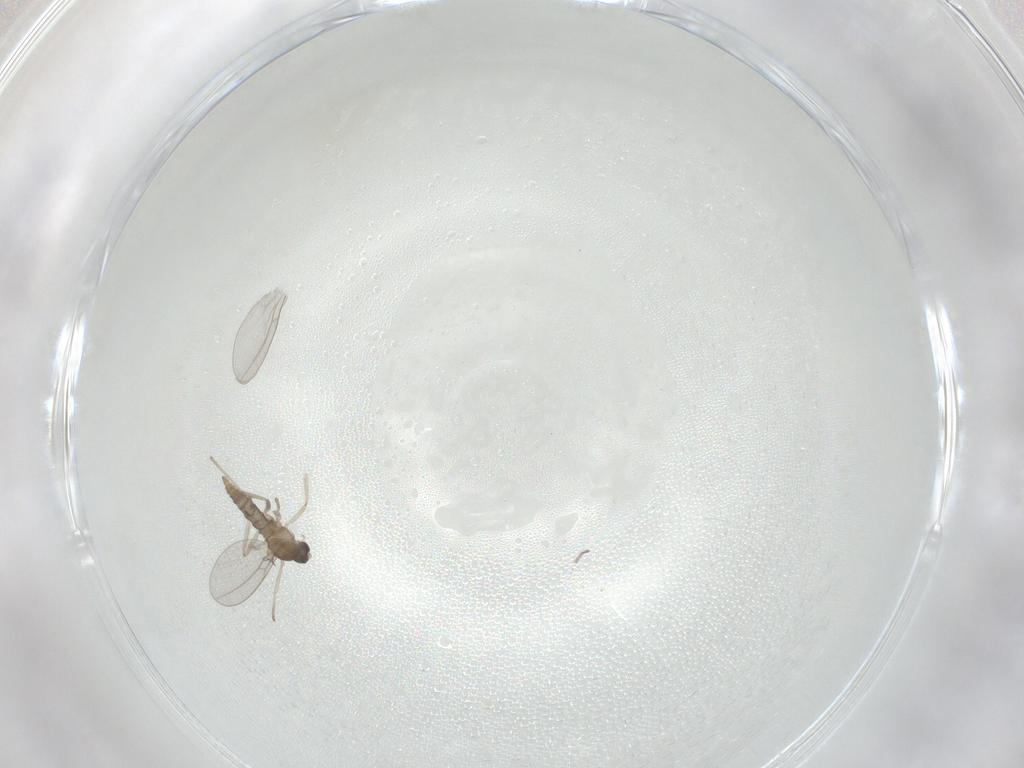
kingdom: Animalia
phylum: Arthropoda
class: Insecta
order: Diptera
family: Cecidomyiidae
